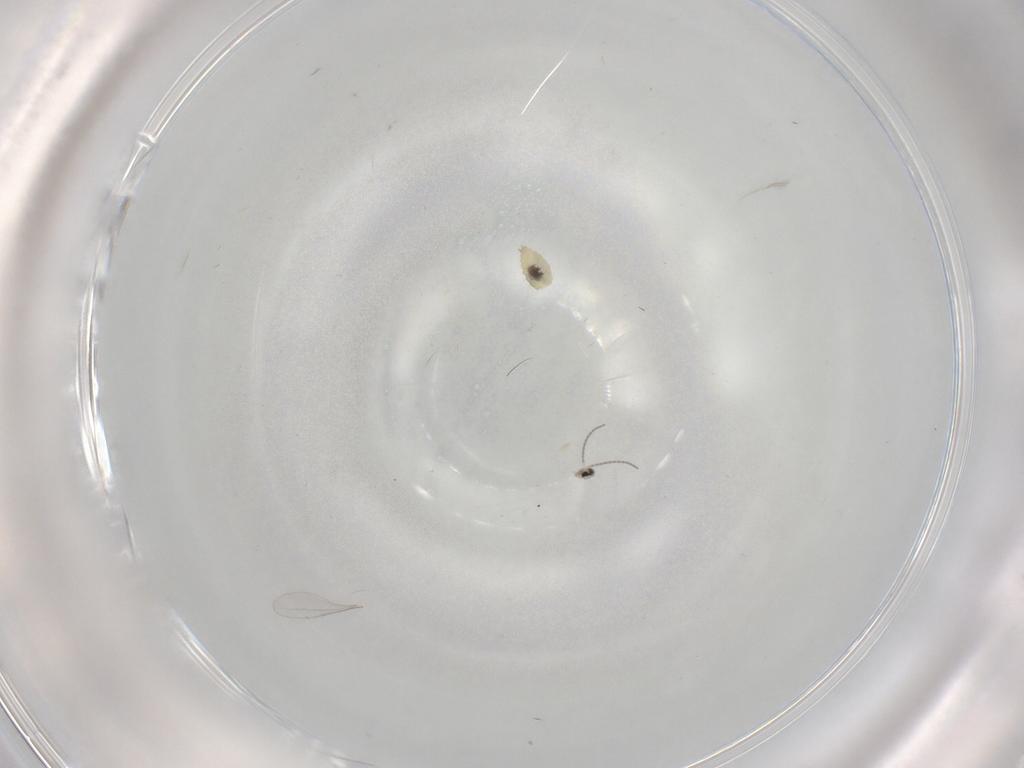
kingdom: Animalia
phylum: Arthropoda
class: Insecta
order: Diptera
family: Cecidomyiidae
